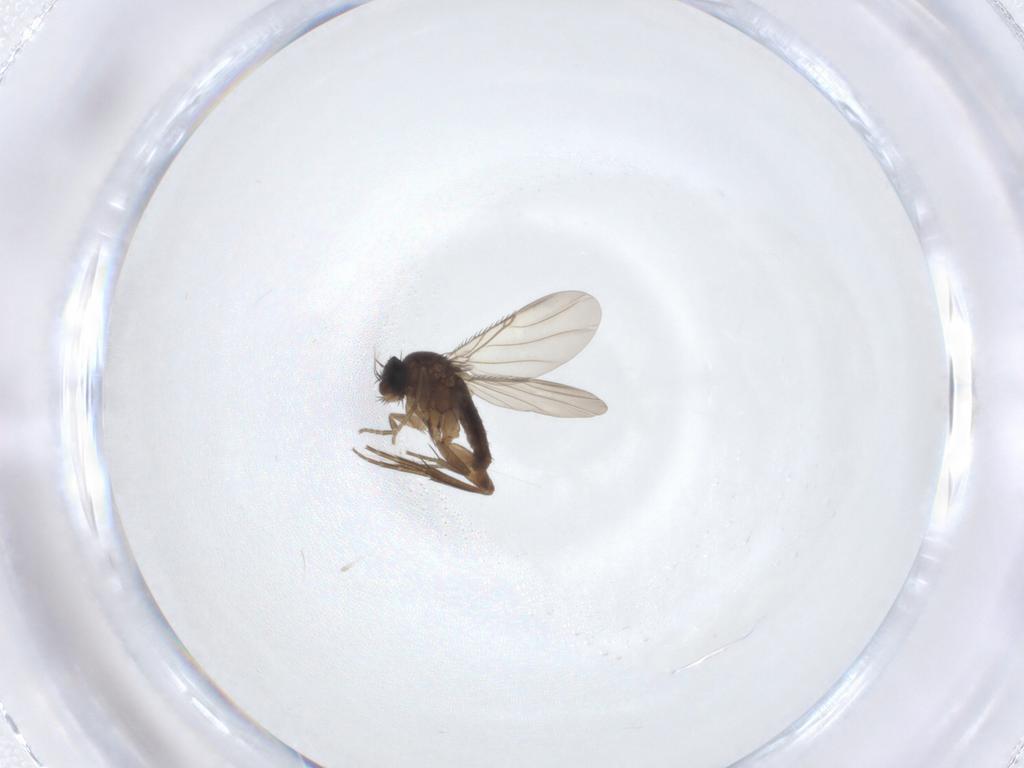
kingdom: Animalia
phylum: Arthropoda
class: Insecta
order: Diptera
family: Phoridae
